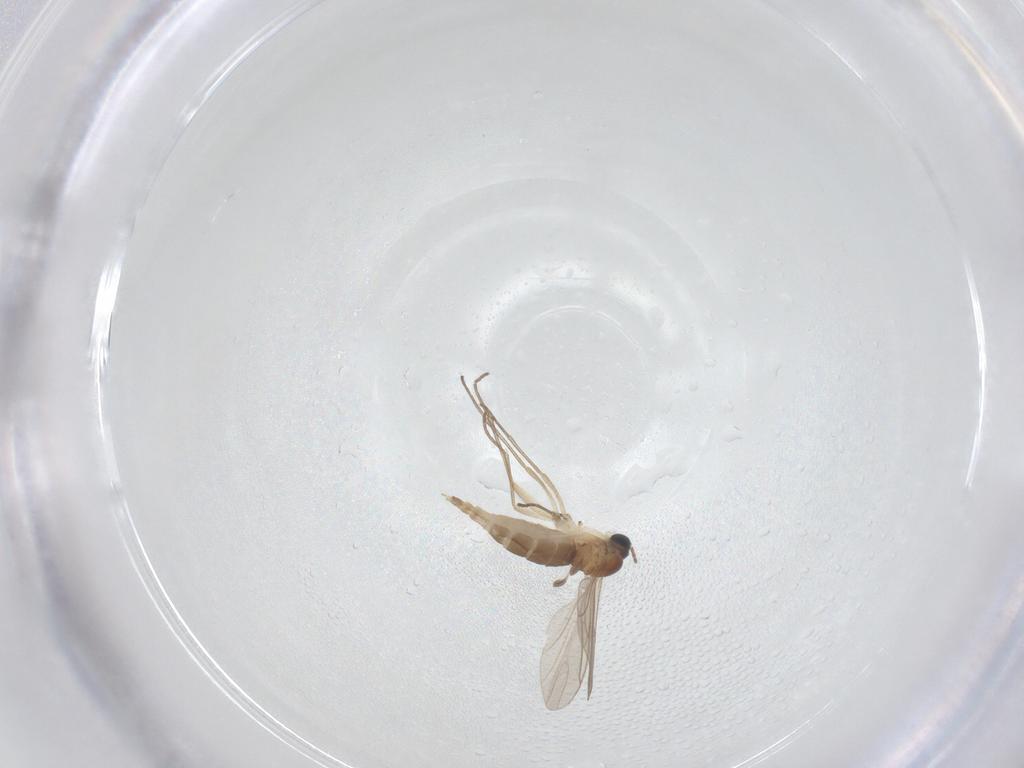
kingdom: Animalia
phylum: Arthropoda
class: Insecta
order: Diptera
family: Sciaridae
